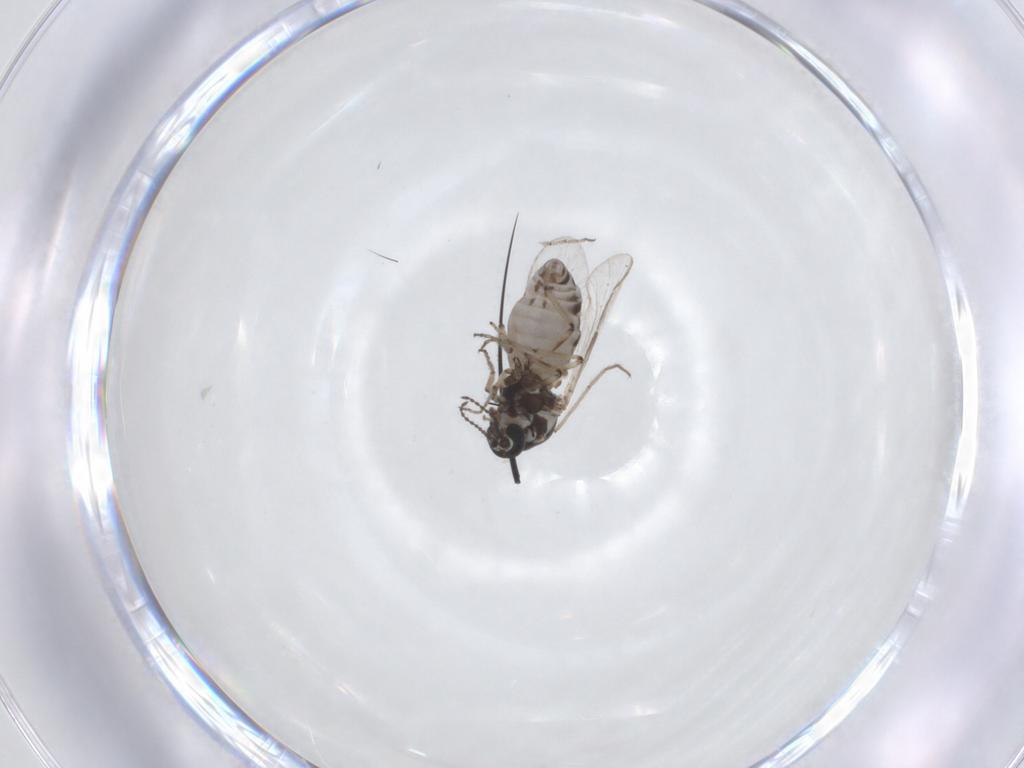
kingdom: Animalia
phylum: Arthropoda
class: Insecta
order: Diptera
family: Ceratopogonidae
